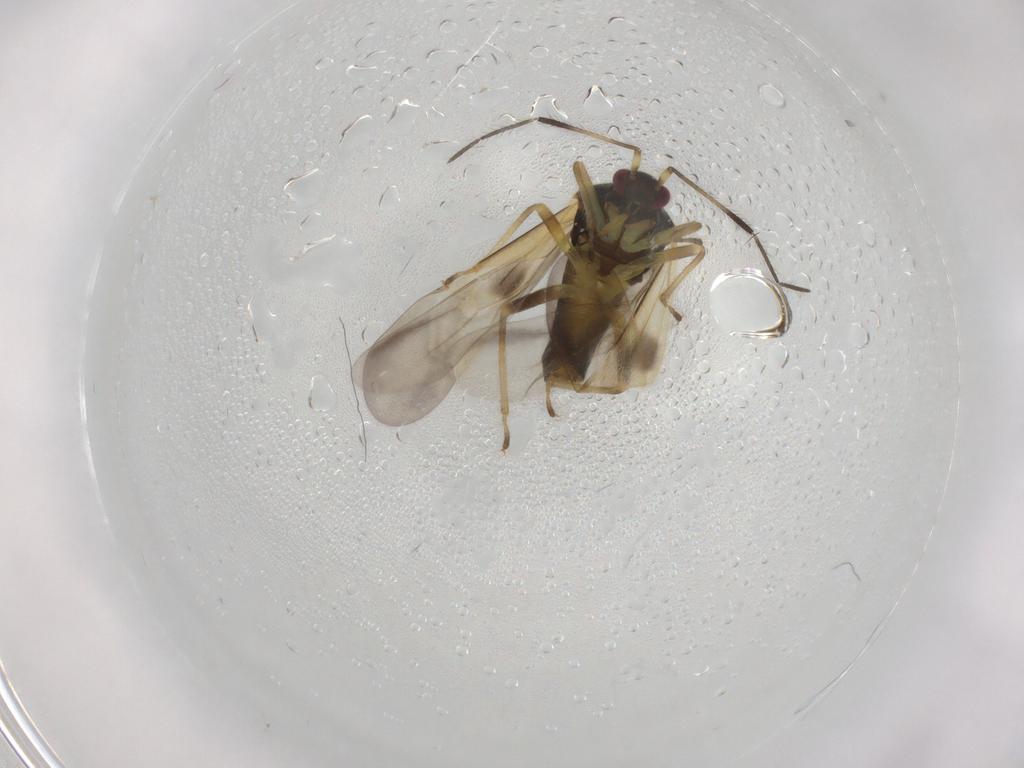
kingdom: Animalia
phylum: Arthropoda
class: Insecta
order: Hemiptera
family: Miridae
